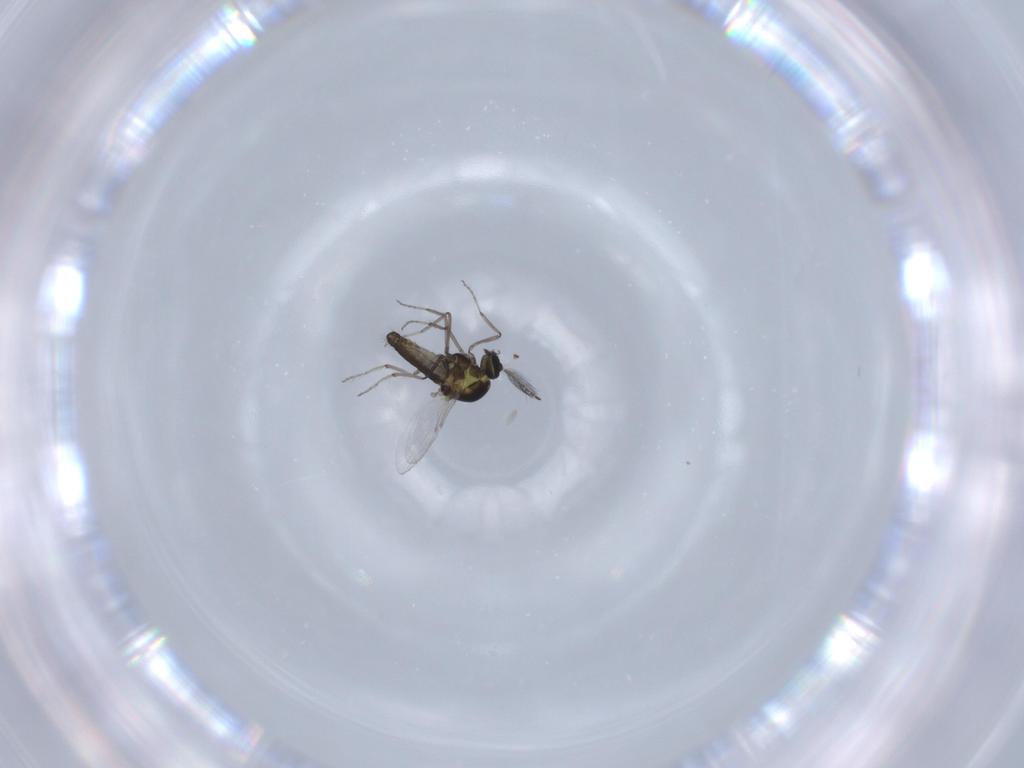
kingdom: Animalia
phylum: Arthropoda
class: Insecta
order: Diptera
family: Ceratopogonidae
